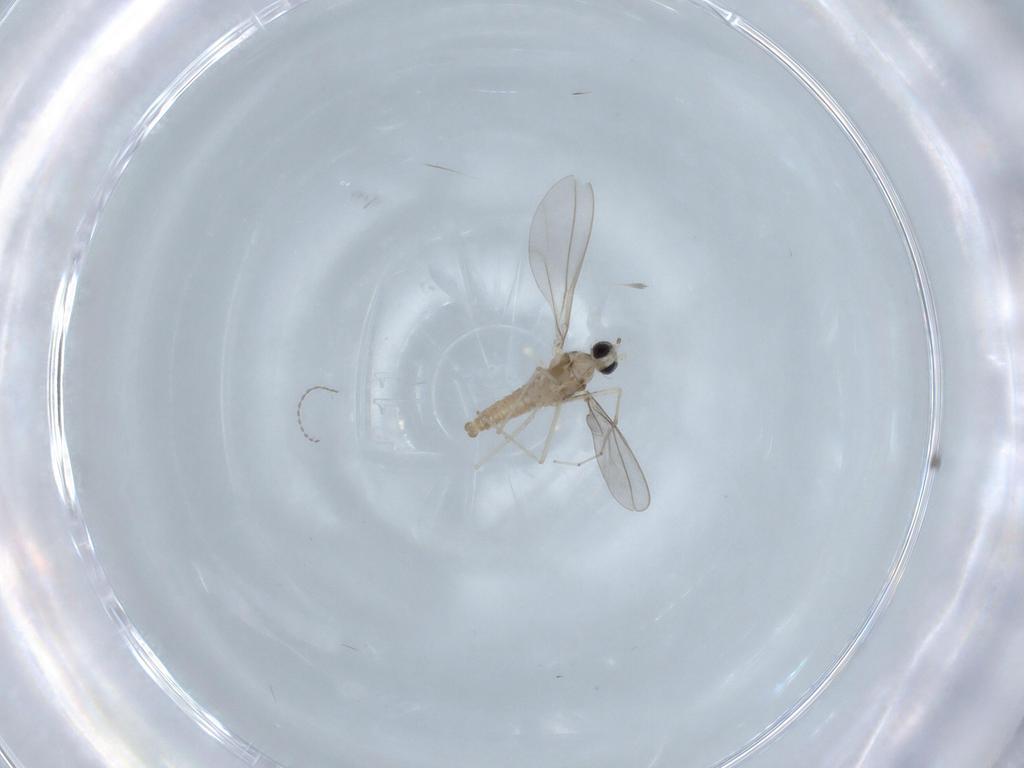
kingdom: Animalia
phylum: Arthropoda
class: Insecta
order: Diptera
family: Cecidomyiidae
